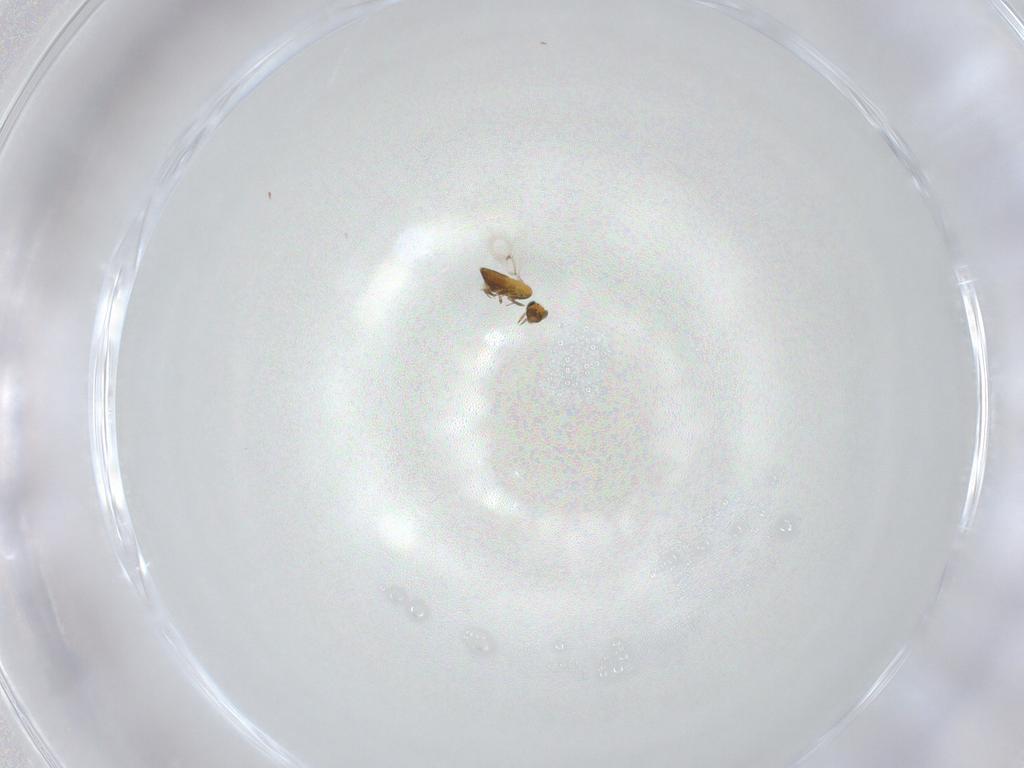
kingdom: Animalia
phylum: Arthropoda
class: Insecta
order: Hymenoptera
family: Trichogrammatidae
